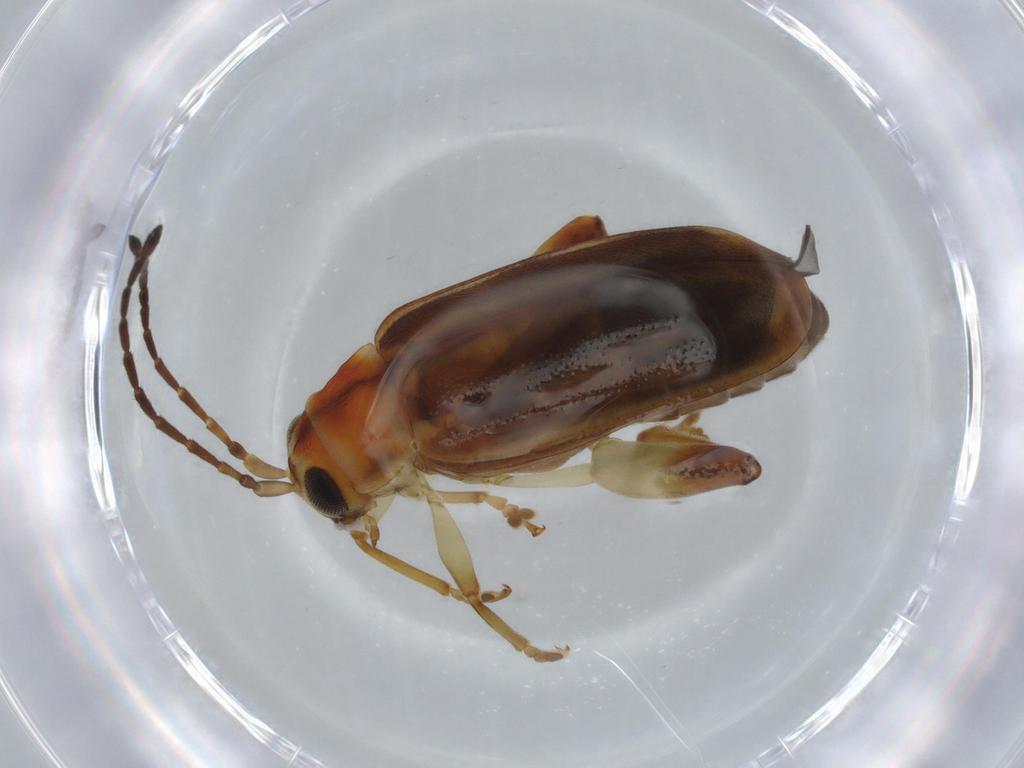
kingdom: Animalia
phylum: Arthropoda
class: Insecta
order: Coleoptera
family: Chrysomelidae
